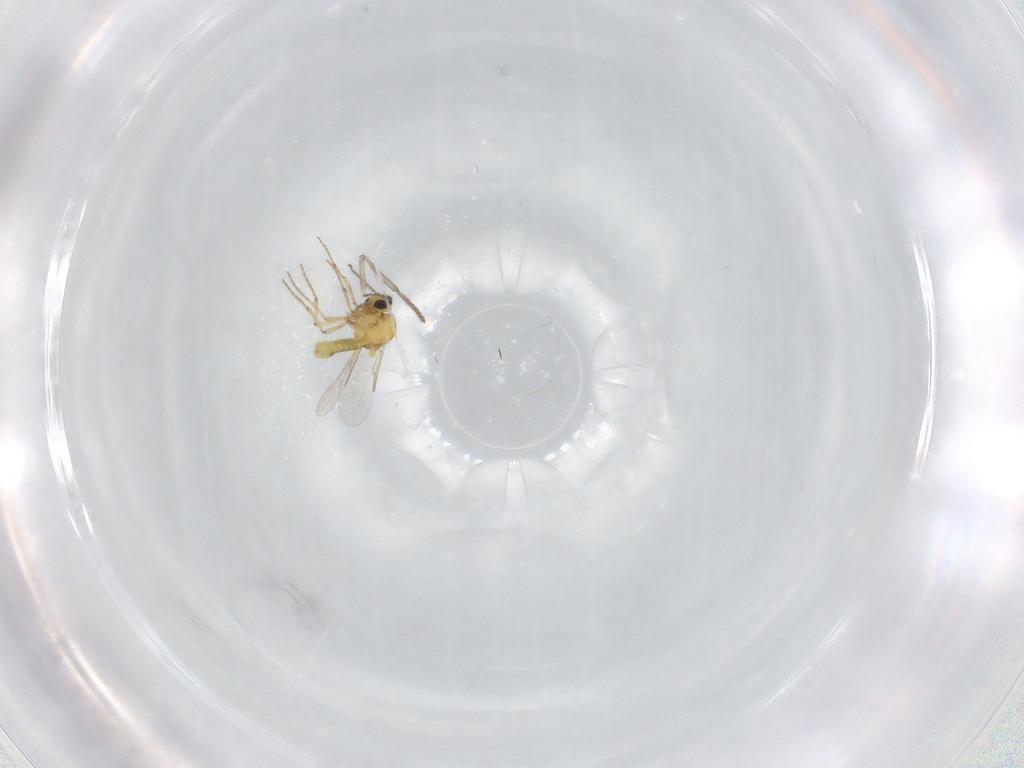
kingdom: Animalia
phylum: Arthropoda
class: Insecta
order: Diptera
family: Ceratopogonidae
